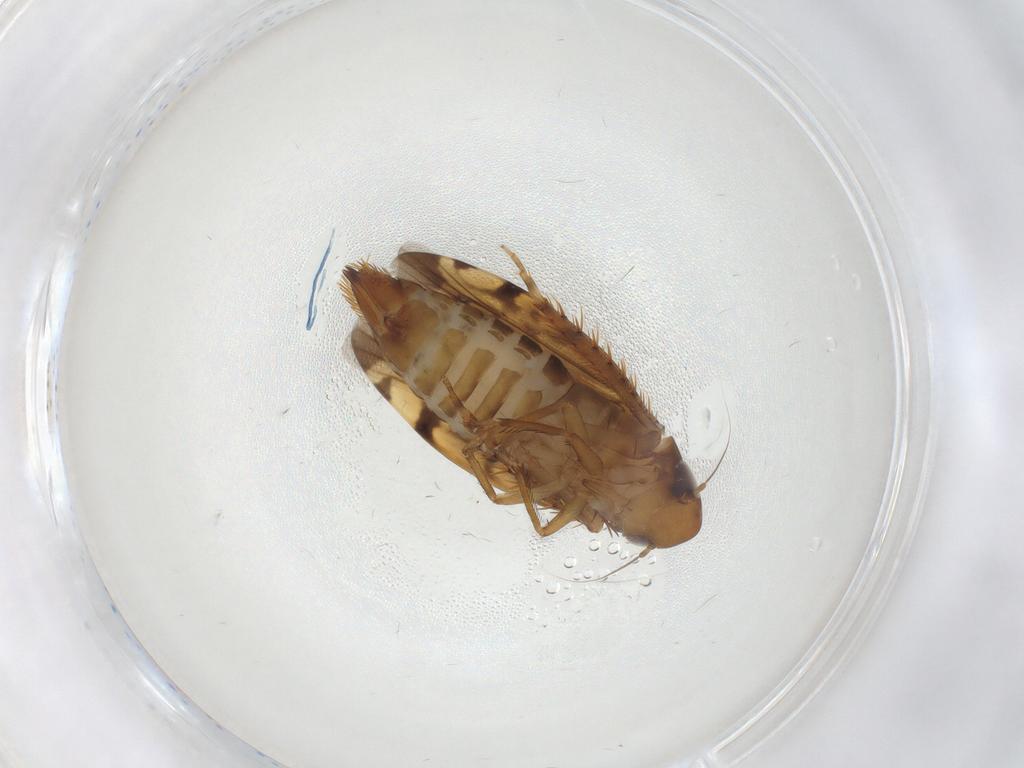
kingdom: Animalia
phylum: Arthropoda
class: Insecta
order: Hemiptera
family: Cicadellidae
